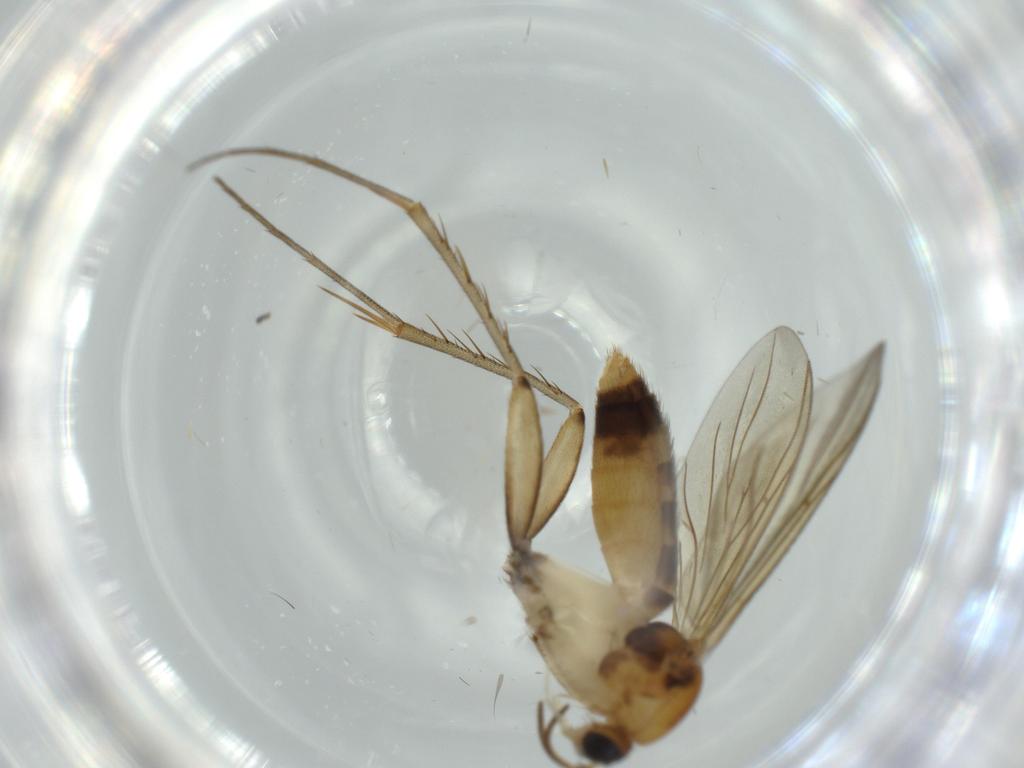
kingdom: Animalia
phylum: Arthropoda
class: Insecta
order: Diptera
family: Mycetophilidae
